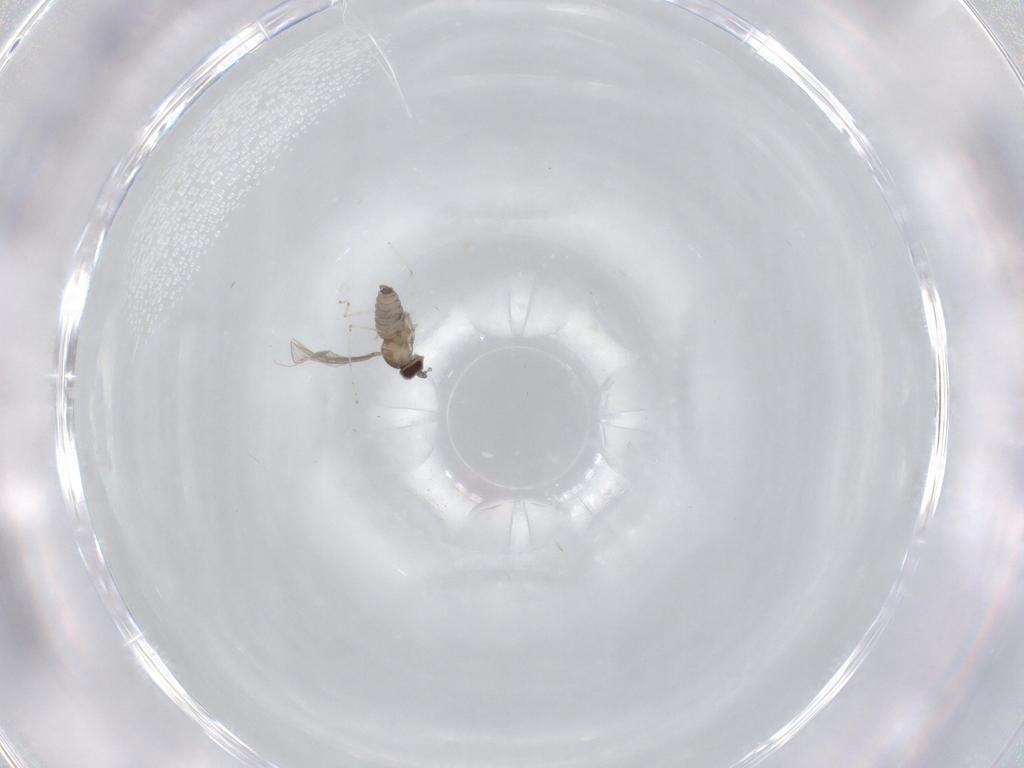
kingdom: Animalia
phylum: Arthropoda
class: Insecta
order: Diptera
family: Cecidomyiidae
